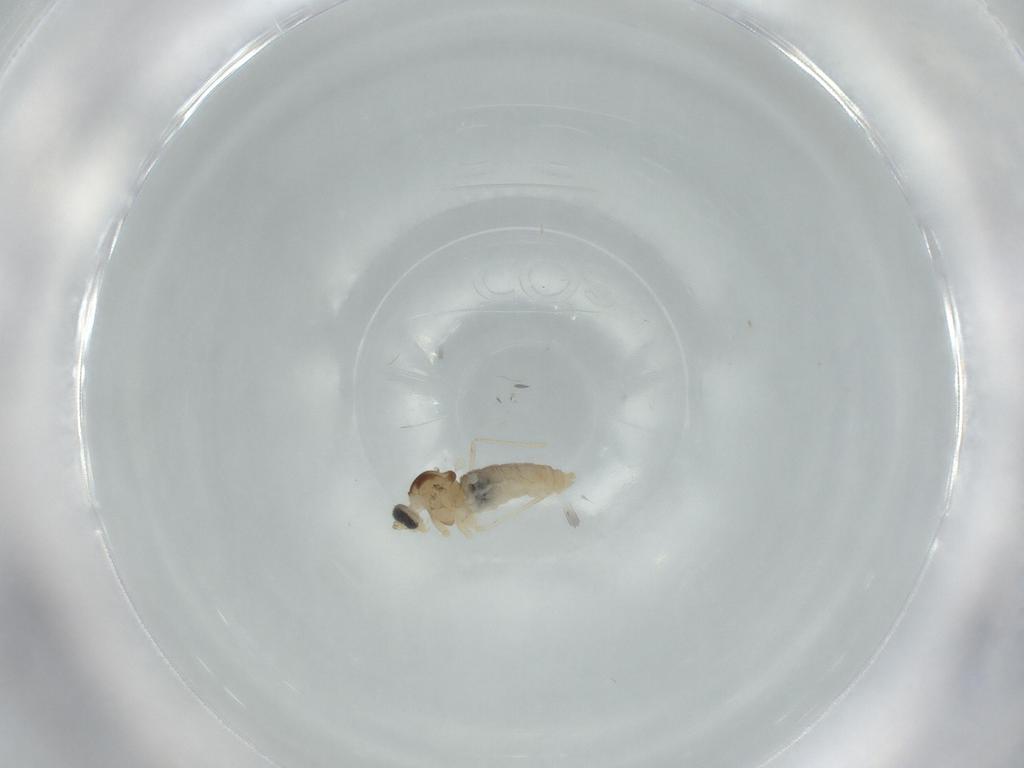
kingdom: Animalia
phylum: Arthropoda
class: Insecta
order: Diptera
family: Cecidomyiidae
